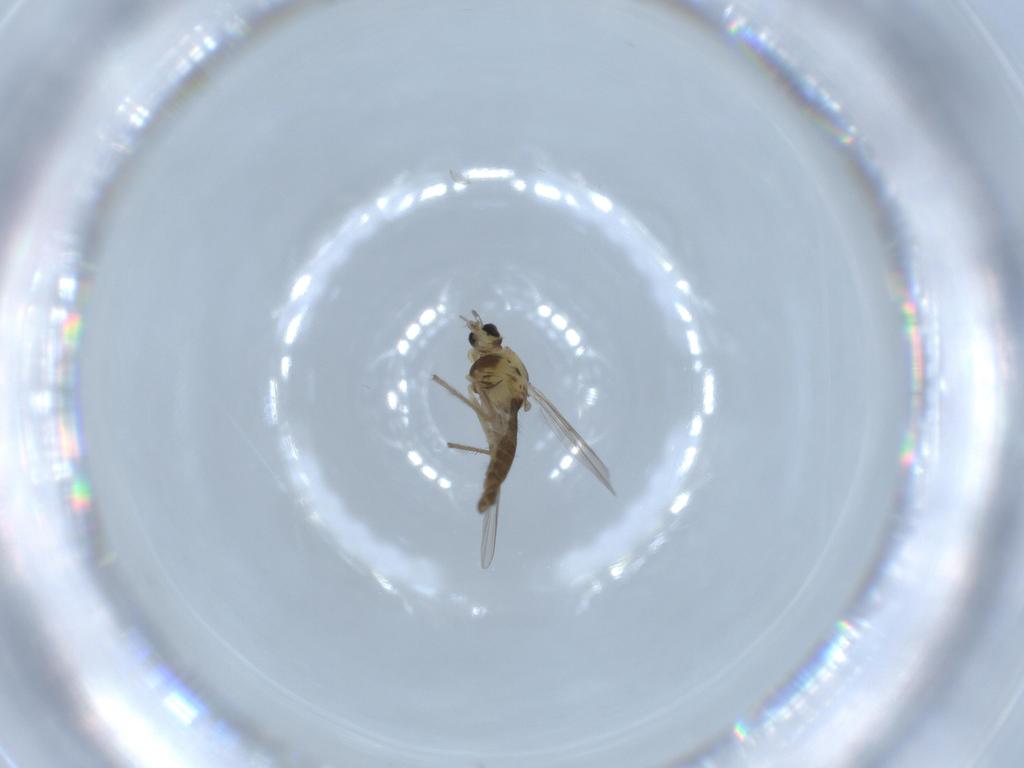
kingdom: Animalia
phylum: Arthropoda
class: Insecta
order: Diptera
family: Chironomidae
